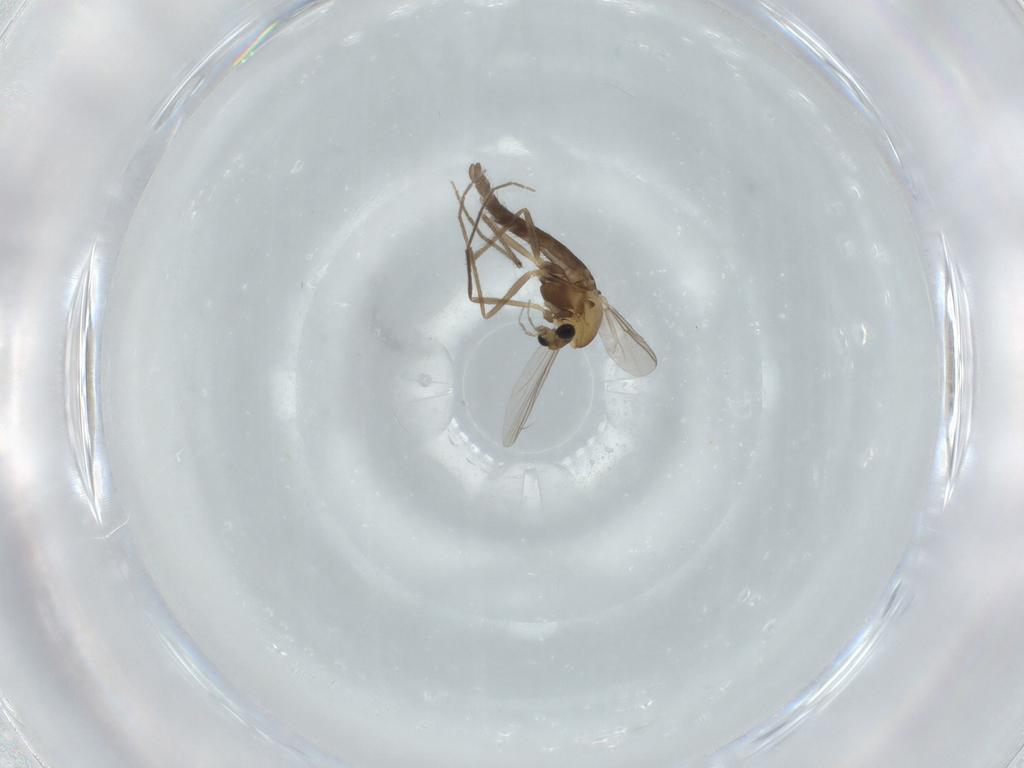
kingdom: Animalia
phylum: Arthropoda
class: Insecta
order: Diptera
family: Chironomidae
